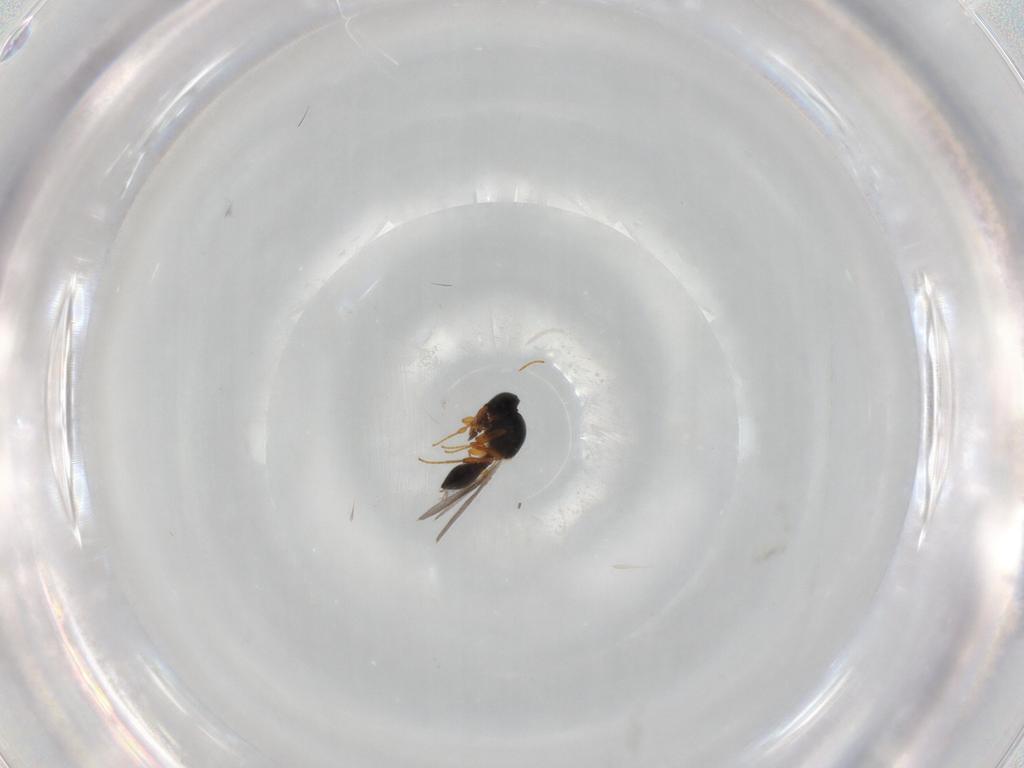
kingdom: Animalia
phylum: Arthropoda
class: Insecta
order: Hymenoptera
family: Platygastridae
